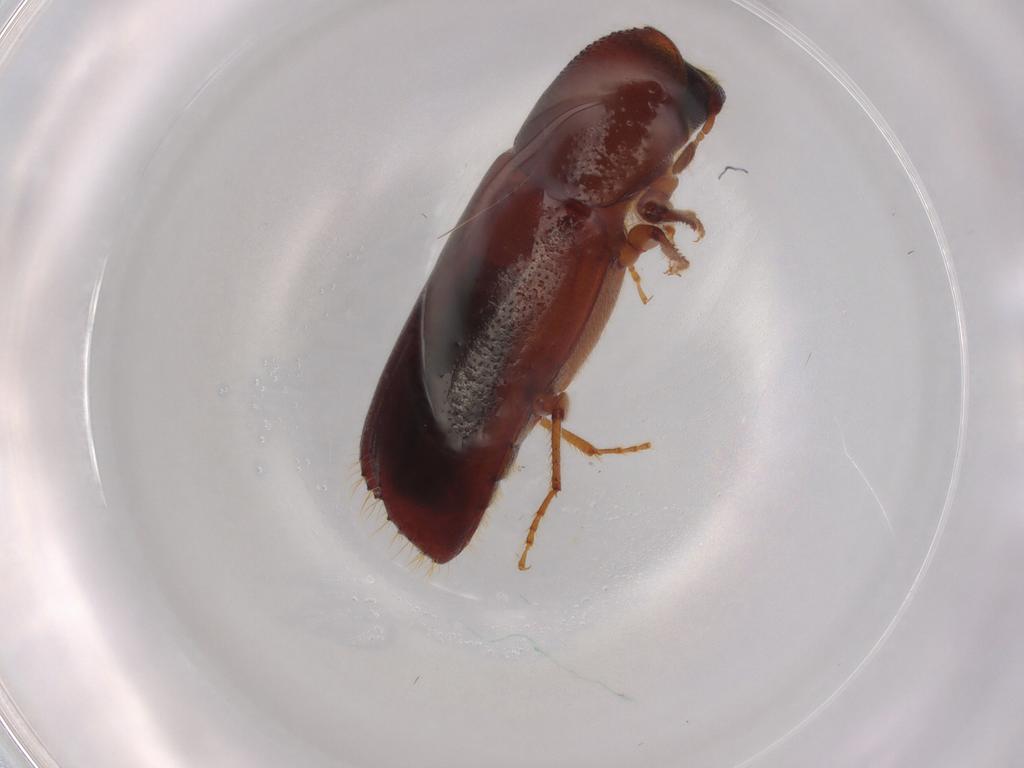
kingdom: Animalia
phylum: Arthropoda
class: Insecta
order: Coleoptera
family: Curculionidae
